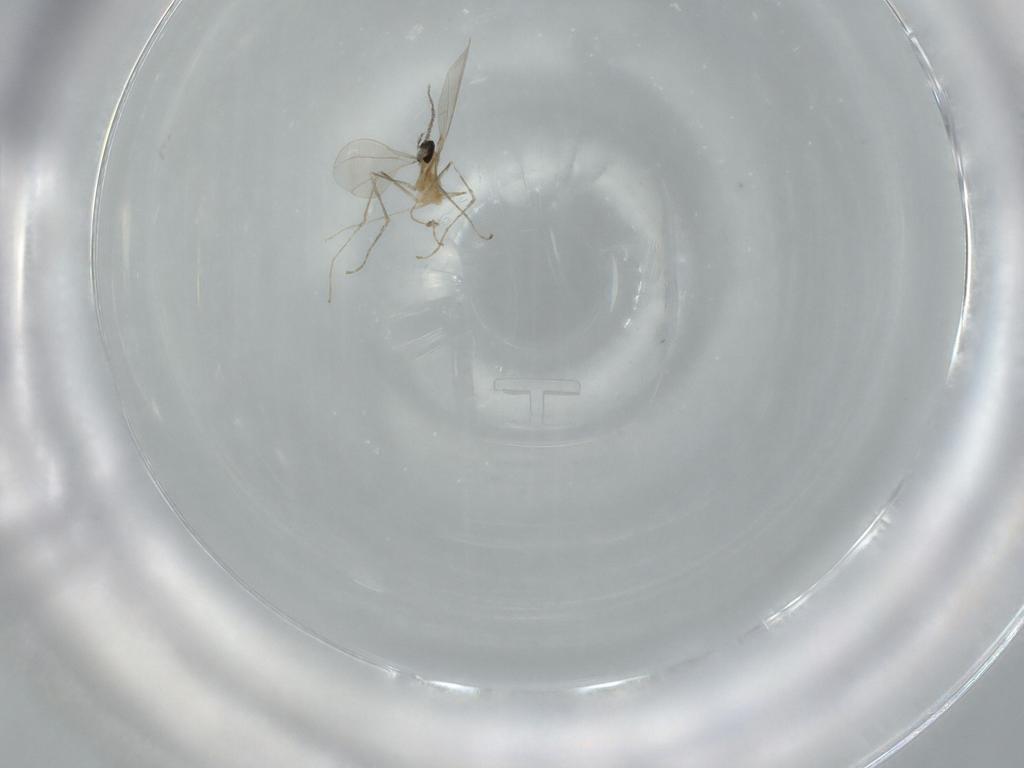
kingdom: Animalia
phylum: Arthropoda
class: Insecta
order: Diptera
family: Cecidomyiidae
